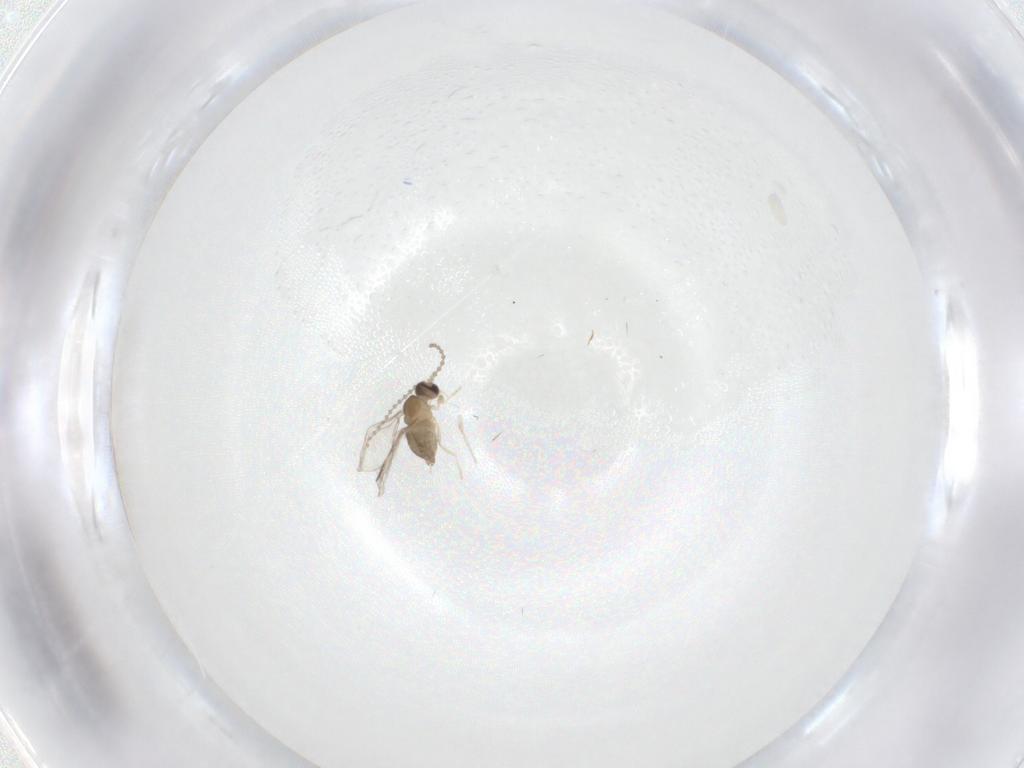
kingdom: Animalia
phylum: Arthropoda
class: Insecta
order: Diptera
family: Cecidomyiidae
